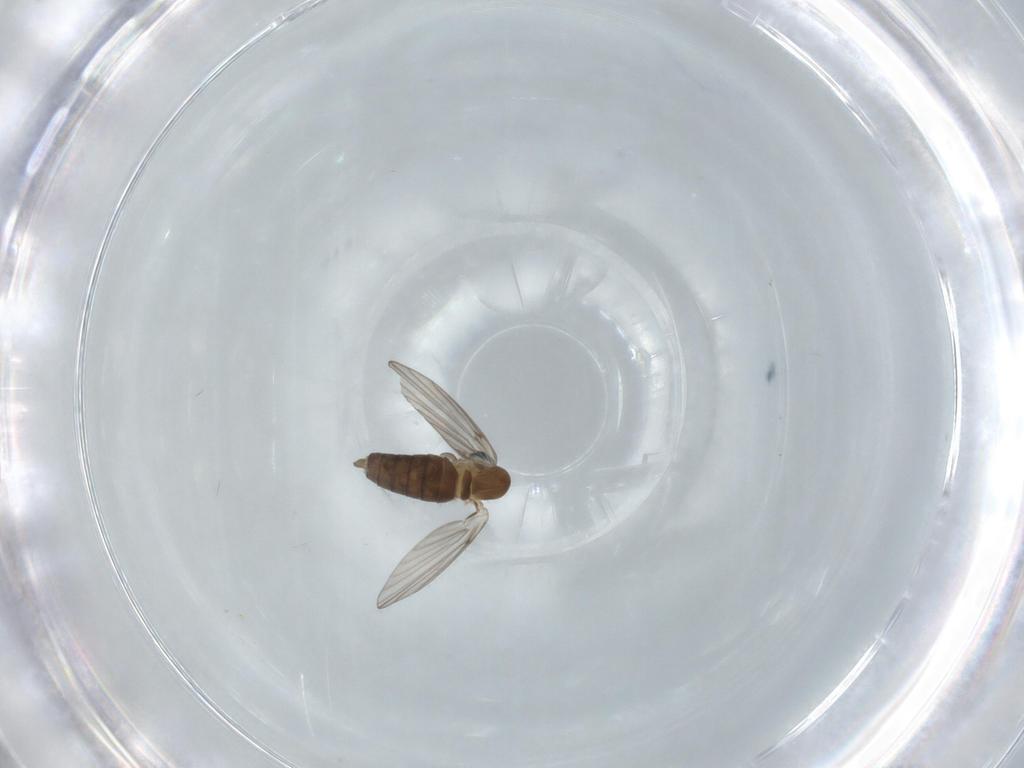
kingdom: Animalia
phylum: Arthropoda
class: Insecta
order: Diptera
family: Psychodidae
